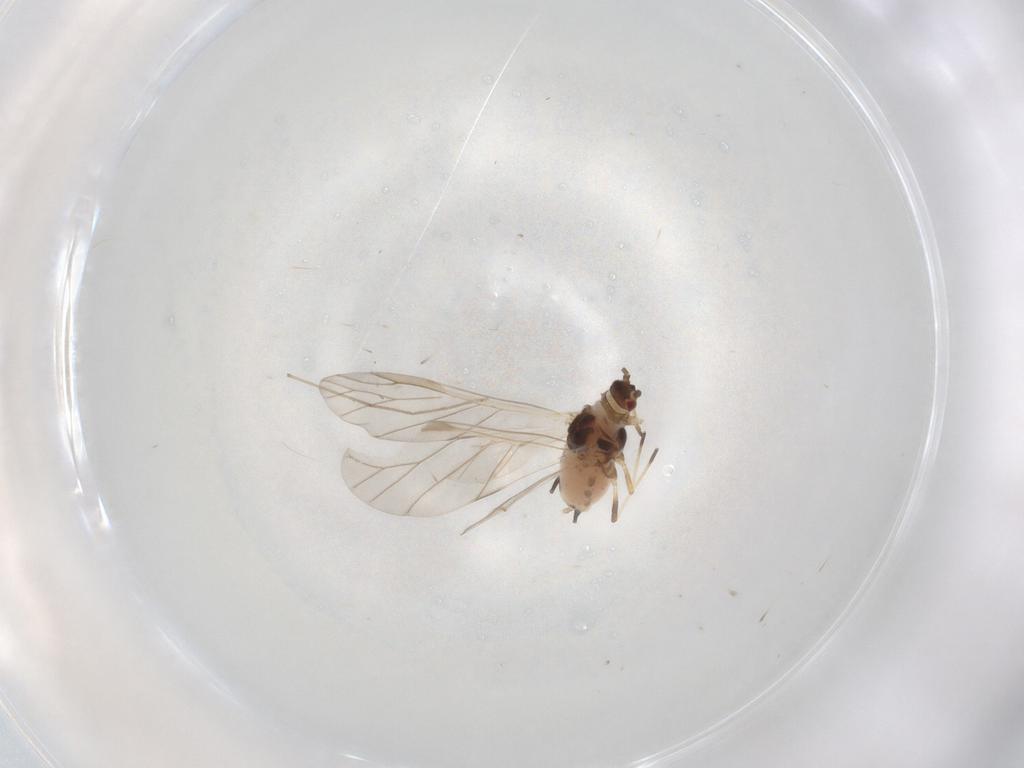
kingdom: Animalia
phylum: Arthropoda
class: Insecta
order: Hemiptera
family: Aphididae
